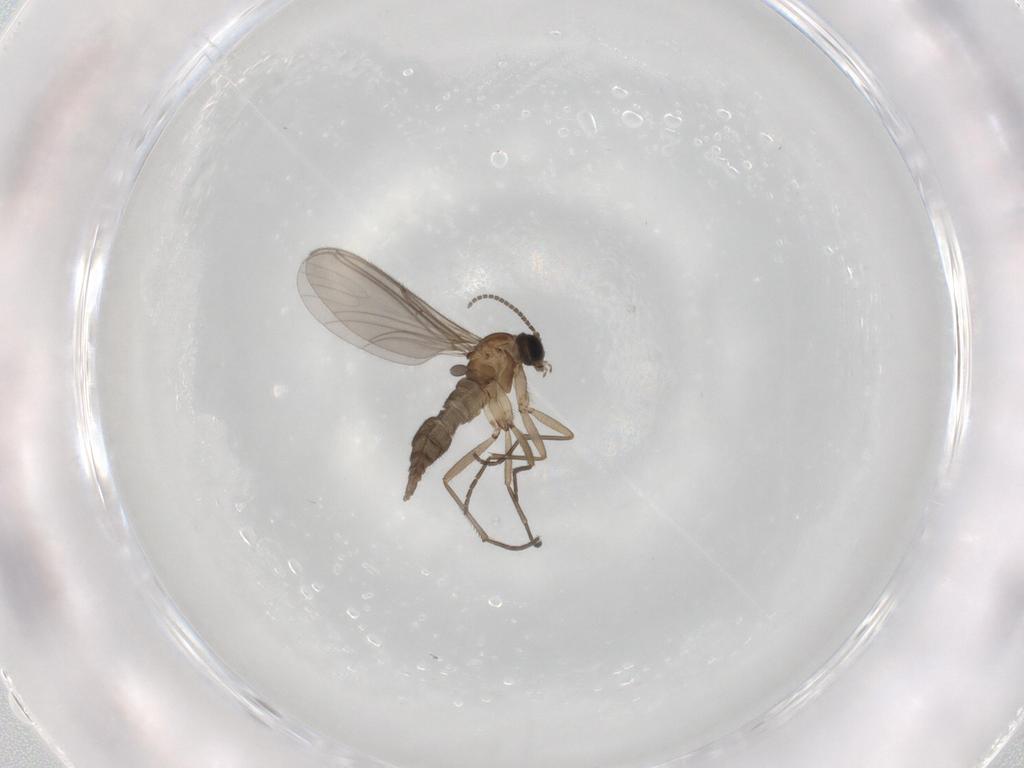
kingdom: Animalia
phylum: Arthropoda
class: Insecta
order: Diptera
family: Sciaridae
